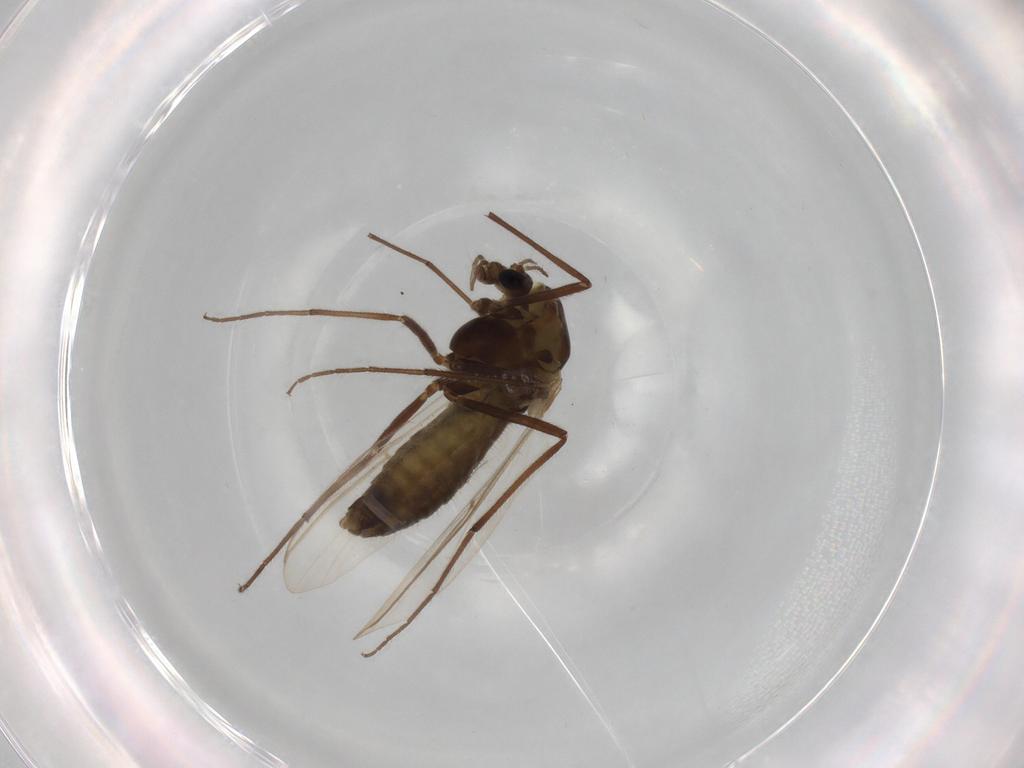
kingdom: Animalia
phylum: Arthropoda
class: Insecta
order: Diptera
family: Chironomidae
